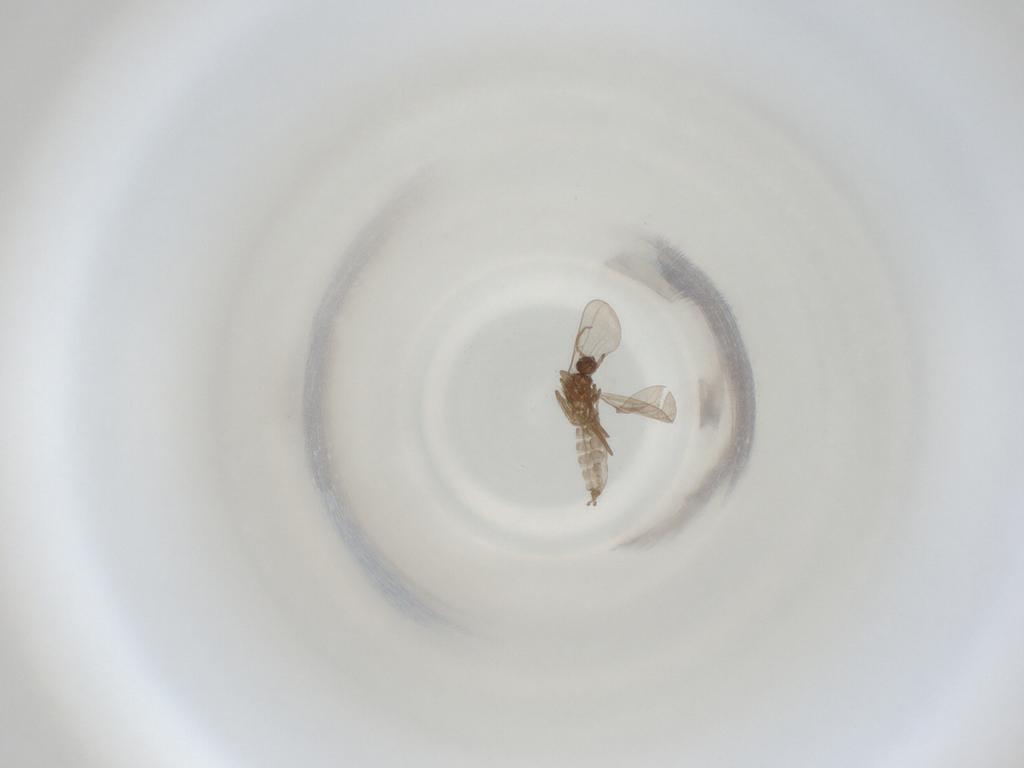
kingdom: Animalia
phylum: Arthropoda
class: Insecta
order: Diptera
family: Cecidomyiidae
